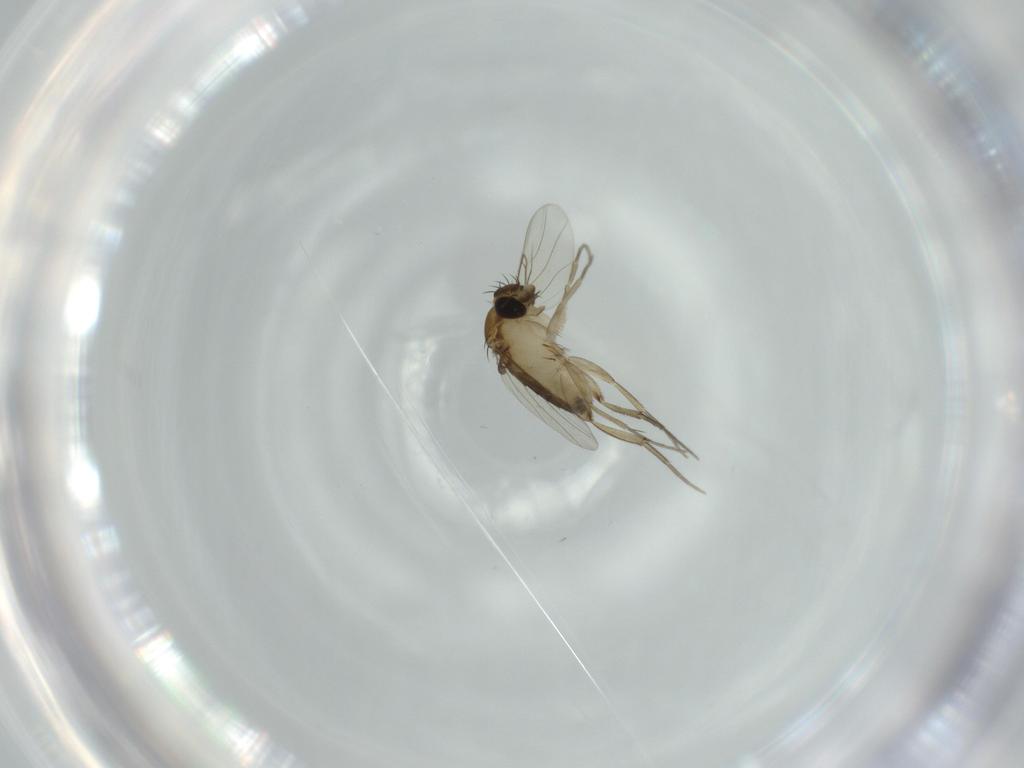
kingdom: Animalia
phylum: Arthropoda
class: Insecta
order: Diptera
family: Phoridae
